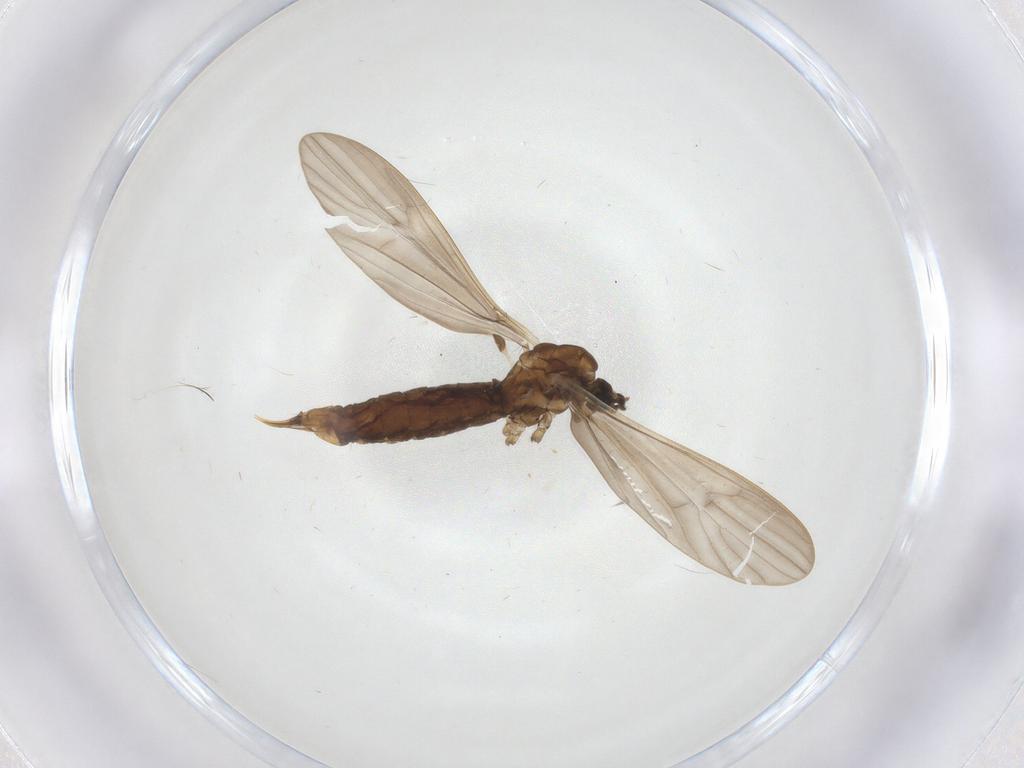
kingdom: Animalia
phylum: Arthropoda
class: Insecta
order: Diptera
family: Limoniidae
